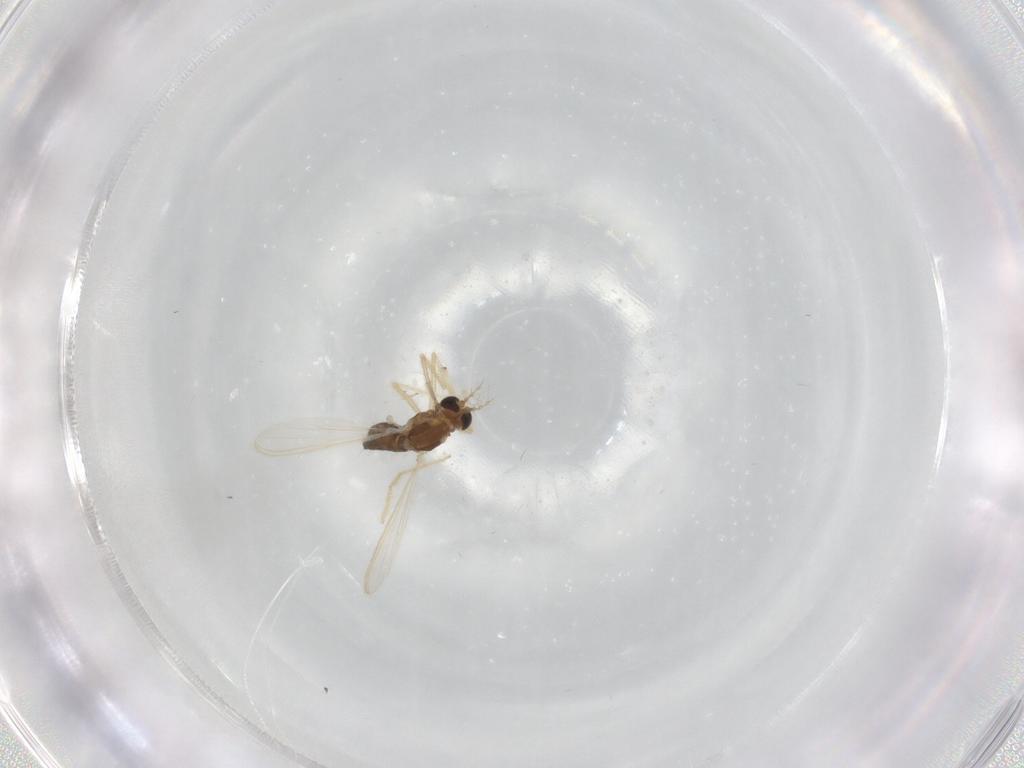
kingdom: Animalia
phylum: Arthropoda
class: Insecta
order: Diptera
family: Chironomidae
